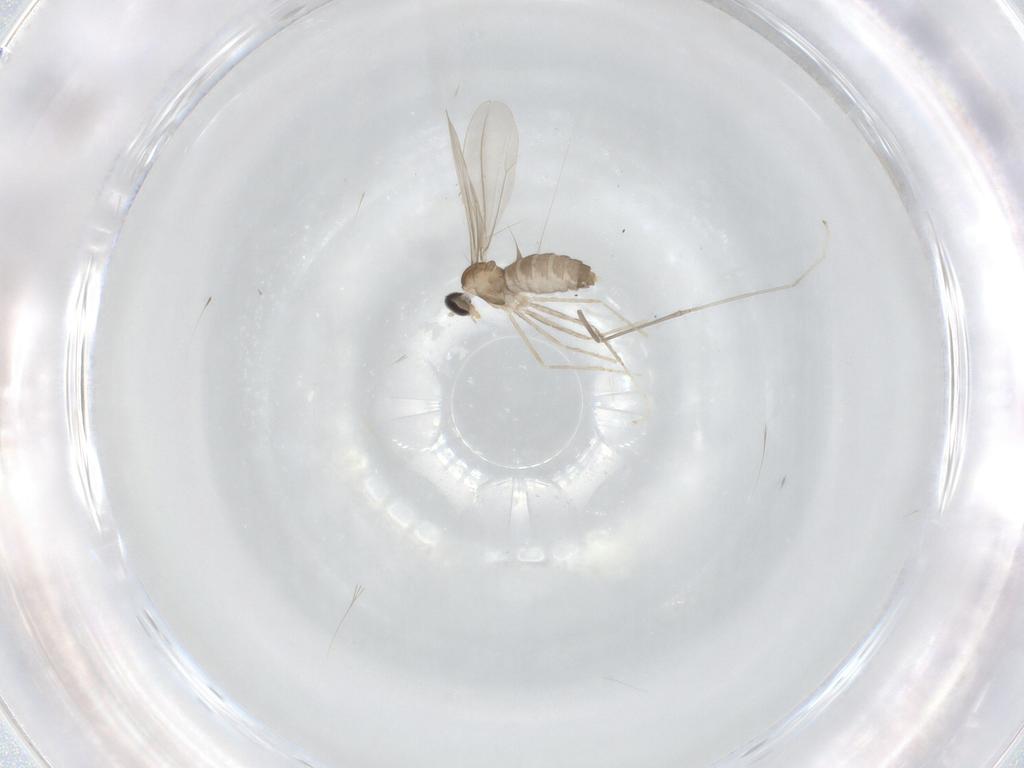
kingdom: Animalia
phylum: Arthropoda
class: Insecta
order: Diptera
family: Cecidomyiidae
